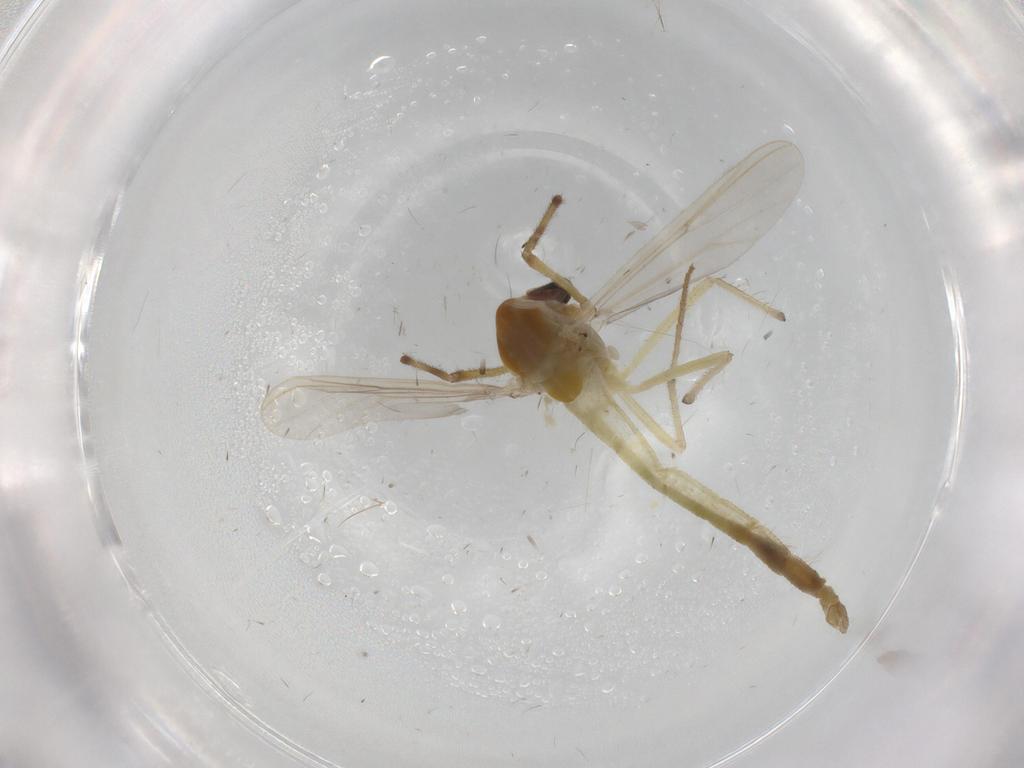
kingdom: Animalia
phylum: Arthropoda
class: Insecta
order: Diptera
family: Chironomidae
